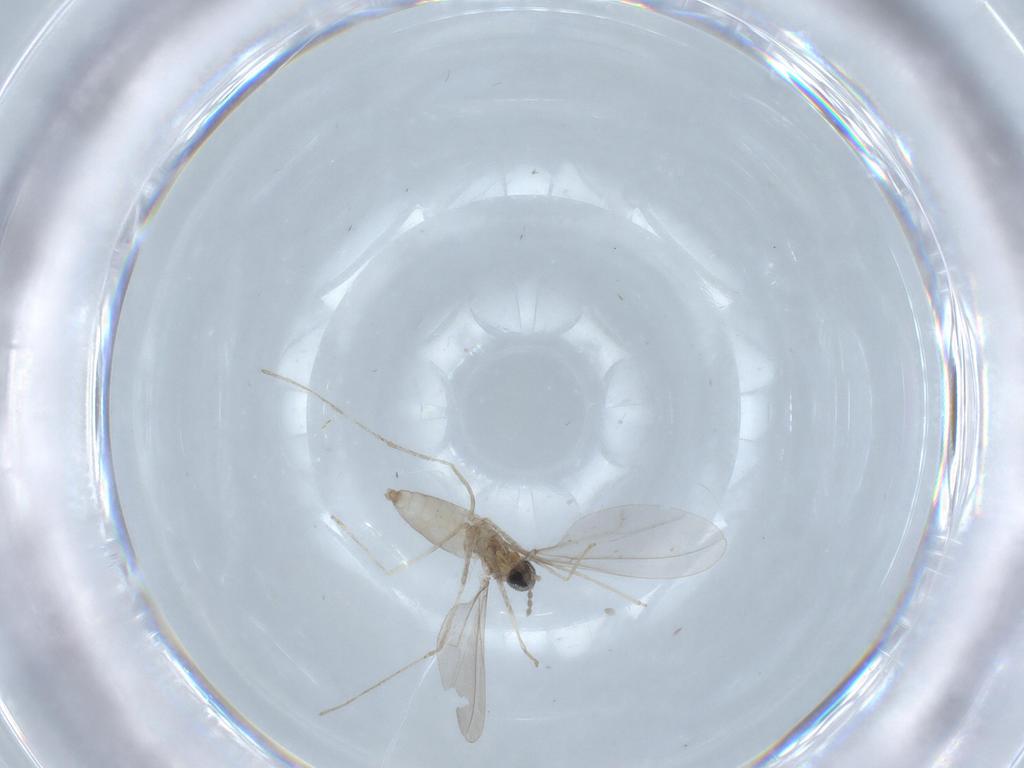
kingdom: Animalia
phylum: Arthropoda
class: Insecta
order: Diptera
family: Cecidomyiidae
